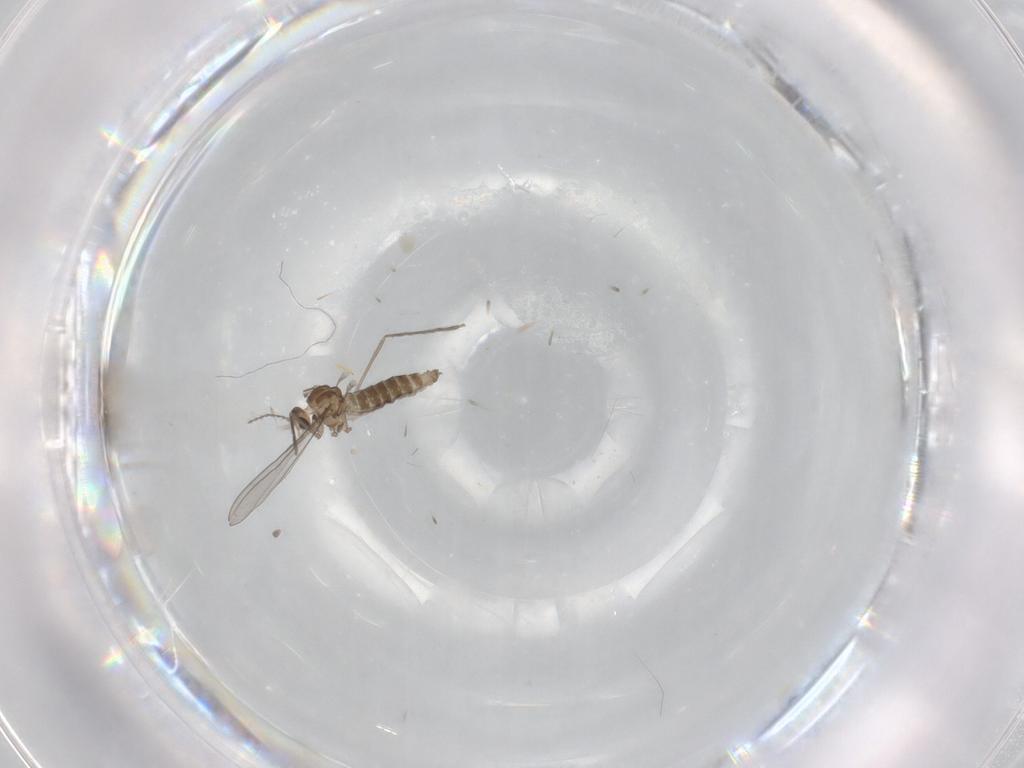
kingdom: Animalia
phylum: Arthropoda
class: Insecta
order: Diptera
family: Cecidomyiidae
